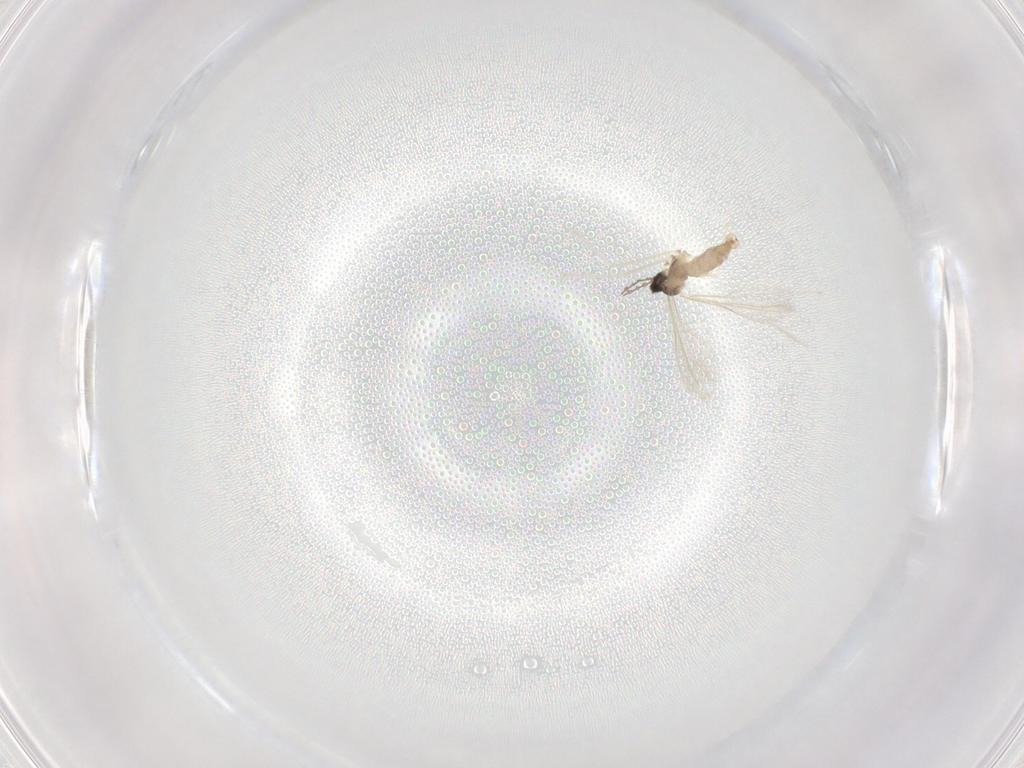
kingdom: Animalia
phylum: Arthropoda
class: Insecta
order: Diptera
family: Cecidomyiidae
